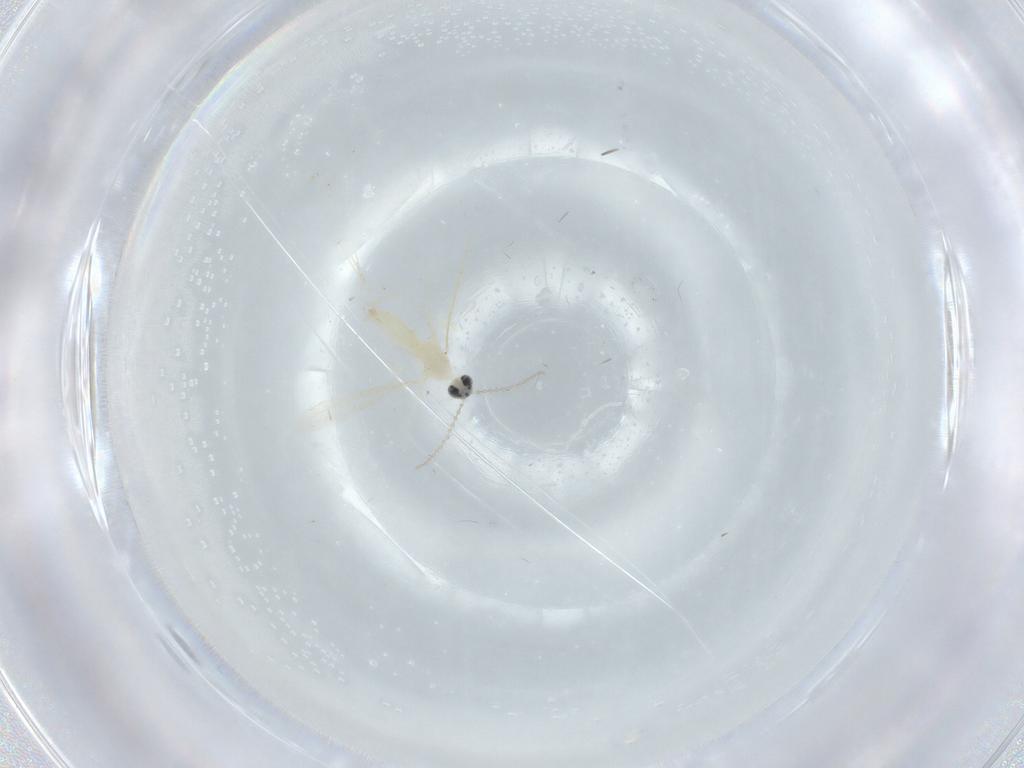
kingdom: Animalia
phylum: Arthropoda
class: Insecta
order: Diptera
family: Cecidomyiidae
